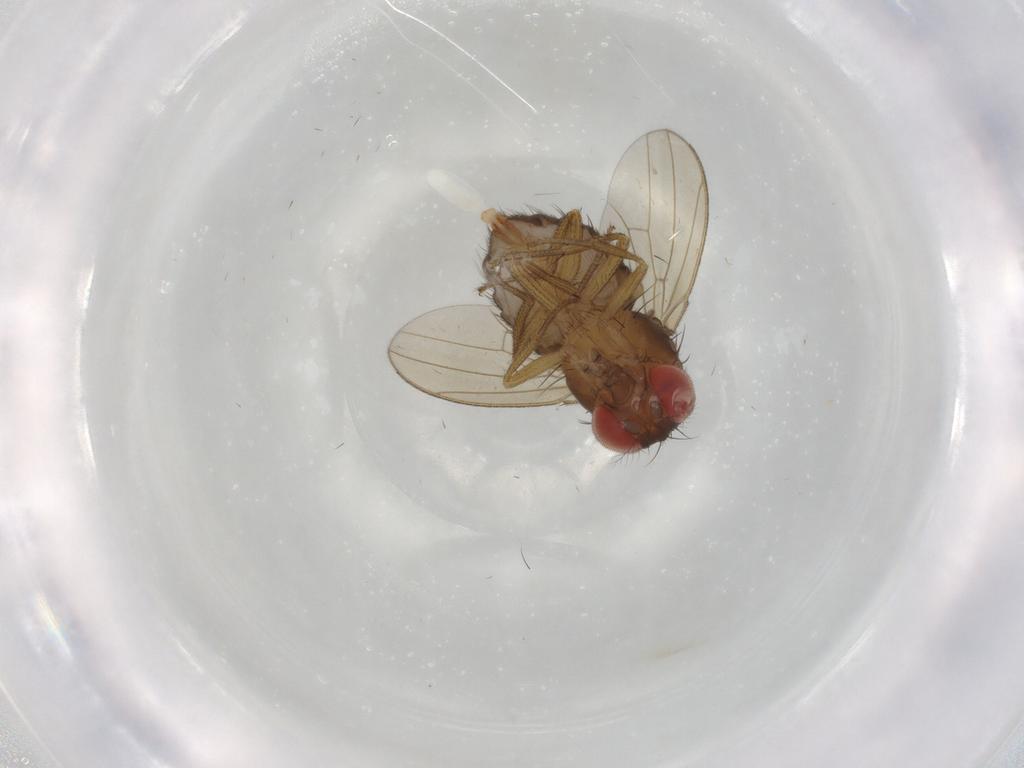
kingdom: Animalia
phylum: Arthropoda
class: Insecta
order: Diptera
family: Drosophilidae
